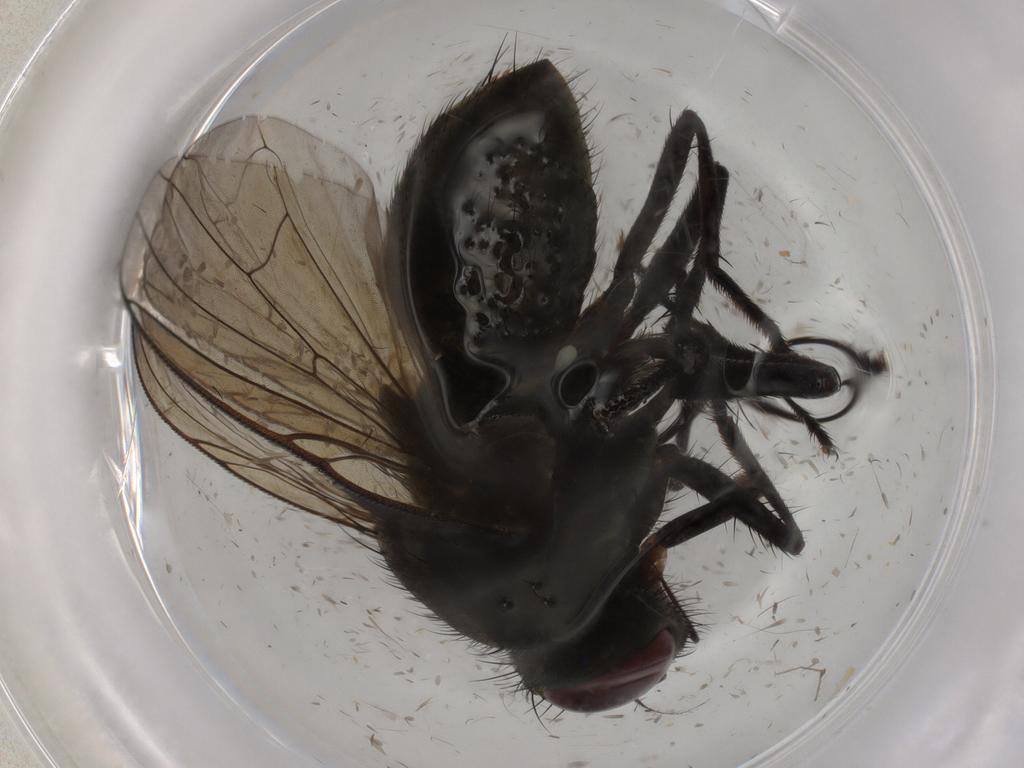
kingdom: Animalia
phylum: Arthropoda
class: Insecta
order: Diptera
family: Muscidae
